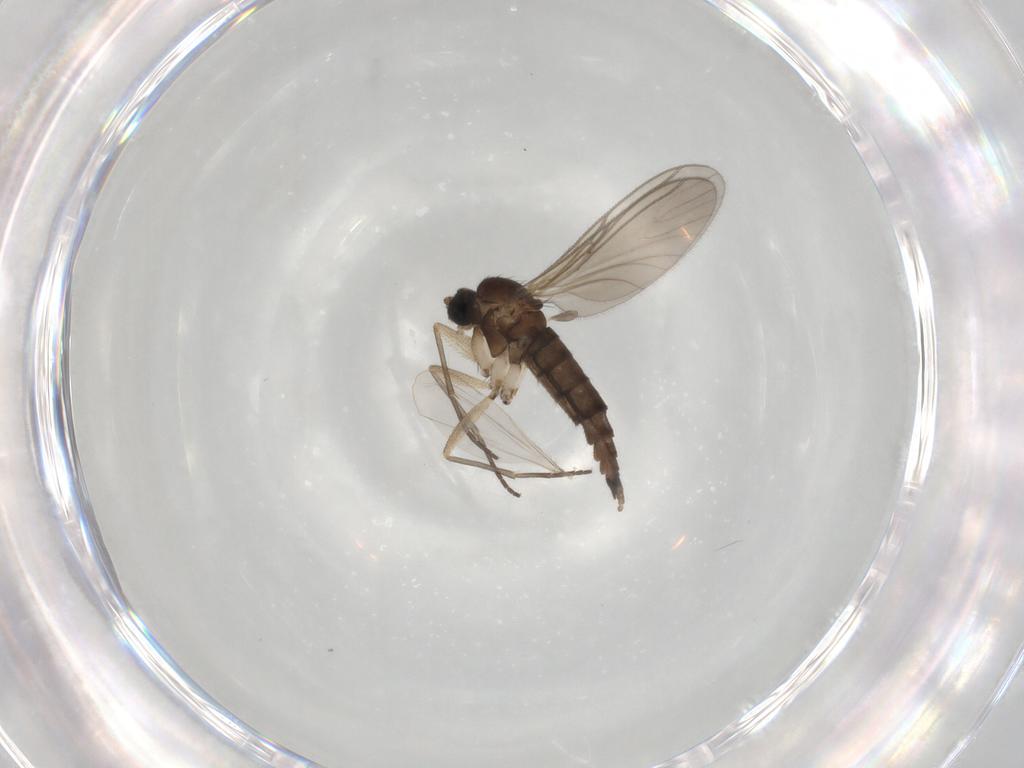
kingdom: Animalia
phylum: Arthropoda
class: Insecta
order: Diptera
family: Sciaridae
